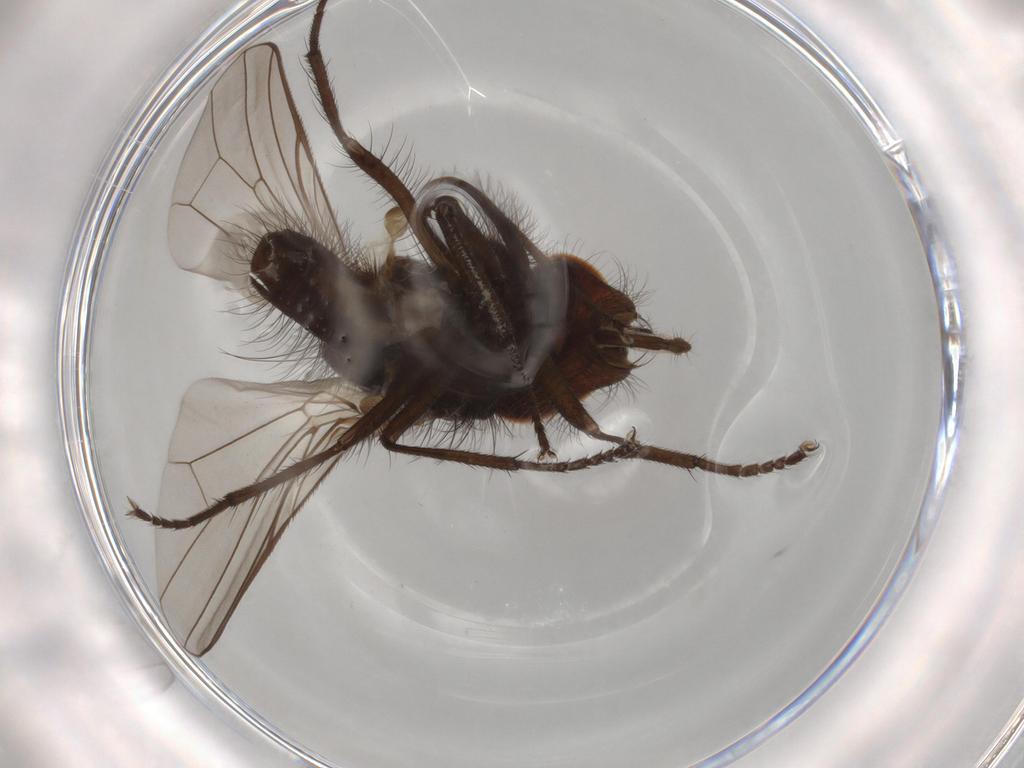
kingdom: Animalia
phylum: Arthropoda
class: Insecta
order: Diptera
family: Anthomyiidae
